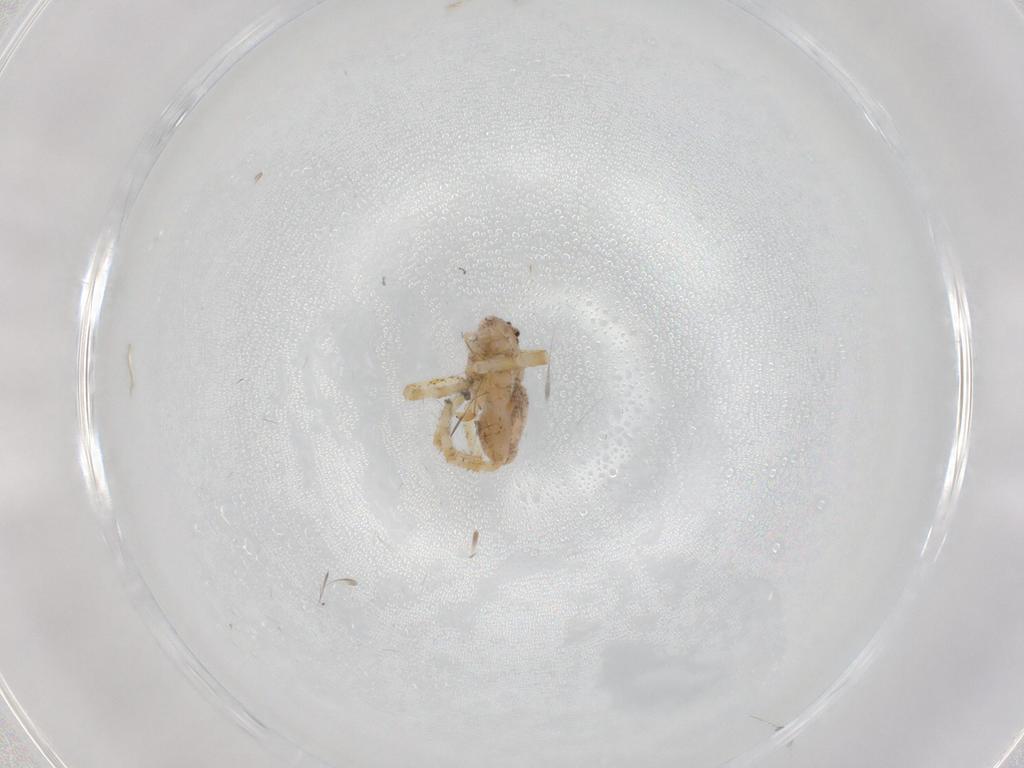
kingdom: Animalia
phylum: Arthropoda
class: Arachnida
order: Araneae
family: Philodromidae
